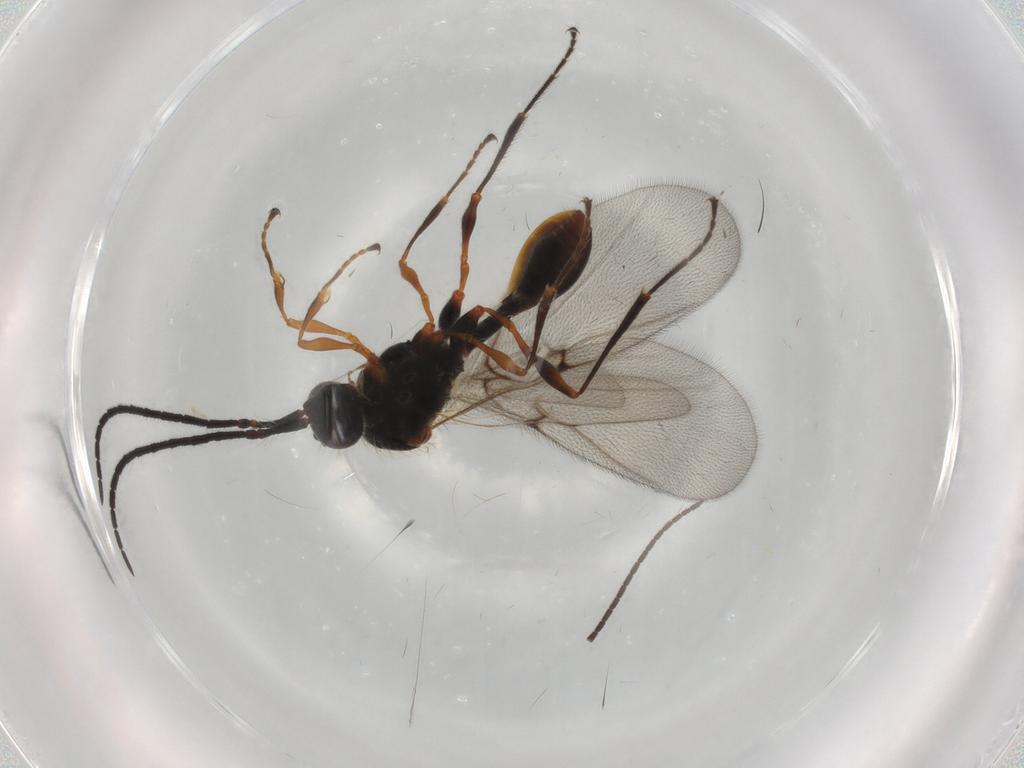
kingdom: Animalia
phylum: Arthropoda
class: Insecta
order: Hymenoptera
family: Diapriidae
